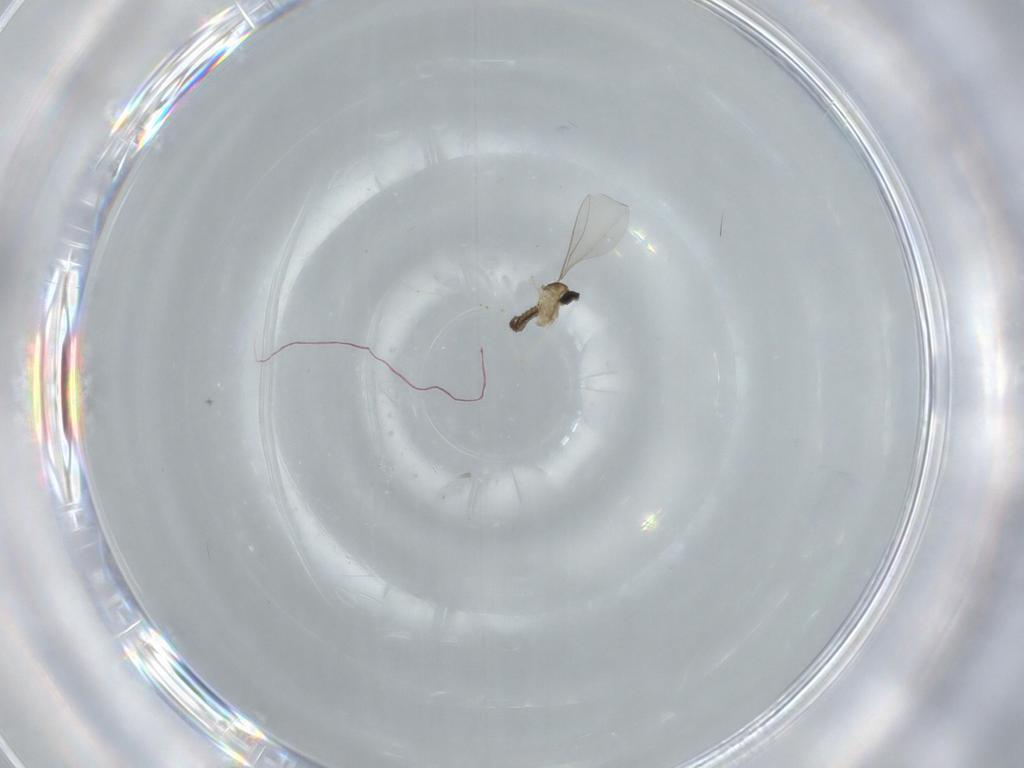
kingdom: Animalia
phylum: Arthropoda
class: Insecta
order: Diptera
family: Cecidomyiidae
